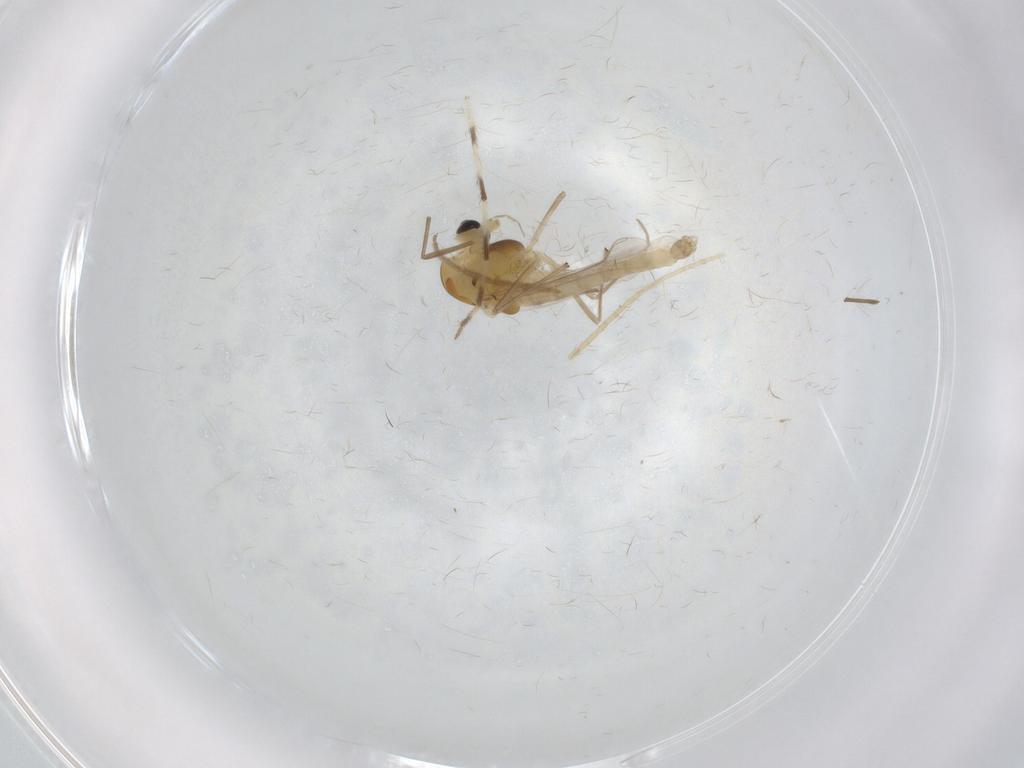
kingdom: Animalia
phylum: Arthropoda
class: Insecta
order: Diptera
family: Chironomidae
